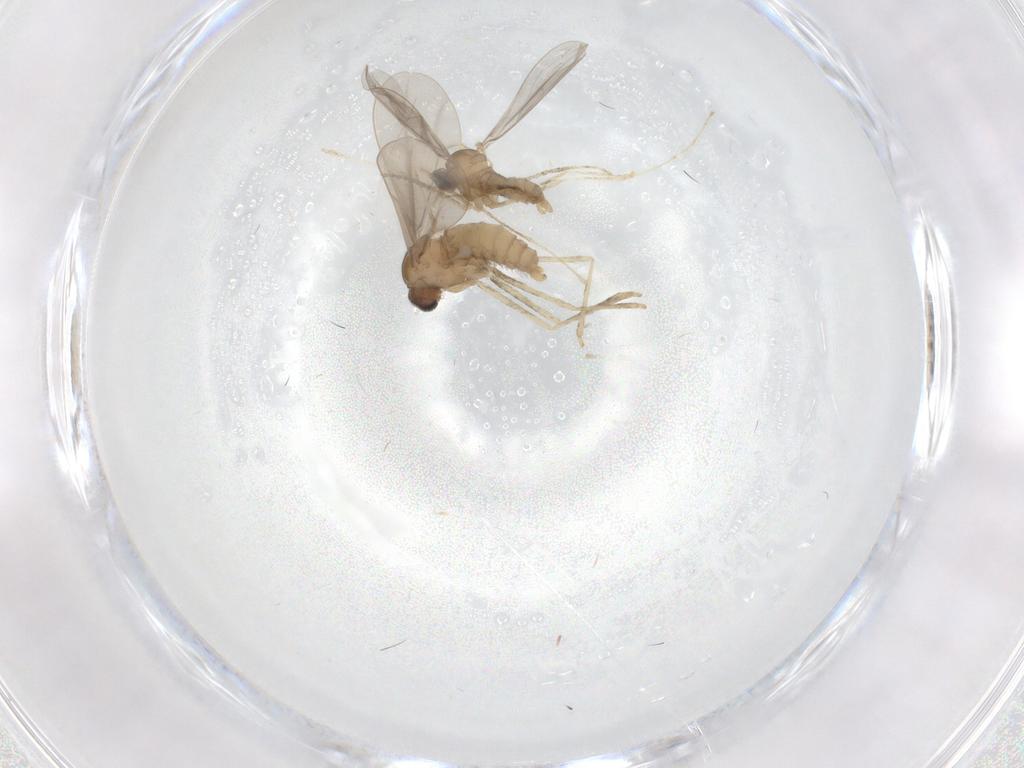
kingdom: Animalia
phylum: Arthropoda
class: Insecta
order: Diptera
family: Cecidomyiidae
